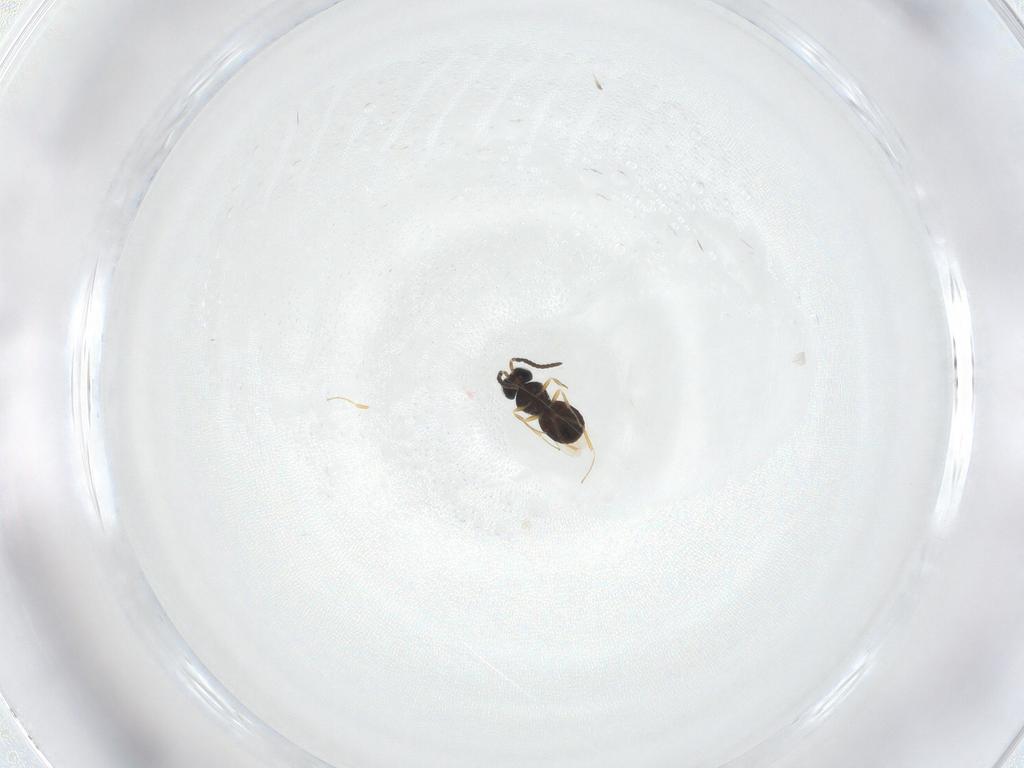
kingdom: Animalia
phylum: Arthropoda
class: Insecta
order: Hymenoptera
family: Scelionidae
